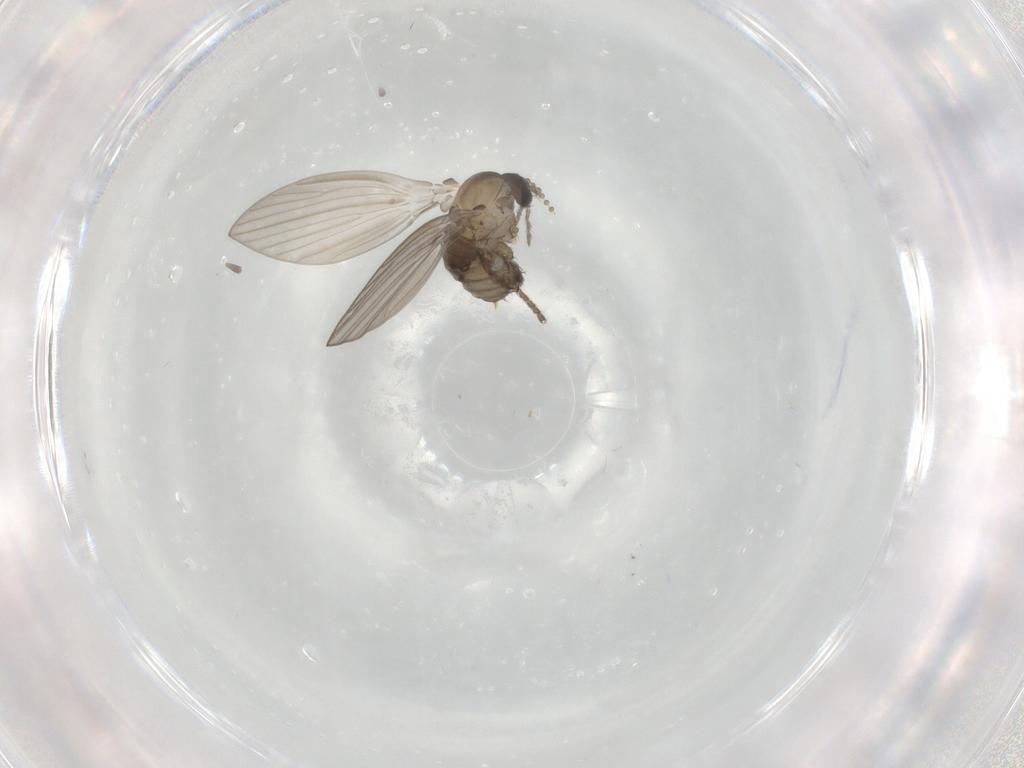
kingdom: Animalia
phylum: Arthropoda
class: Insecta
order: Diptera
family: Psychodidae
